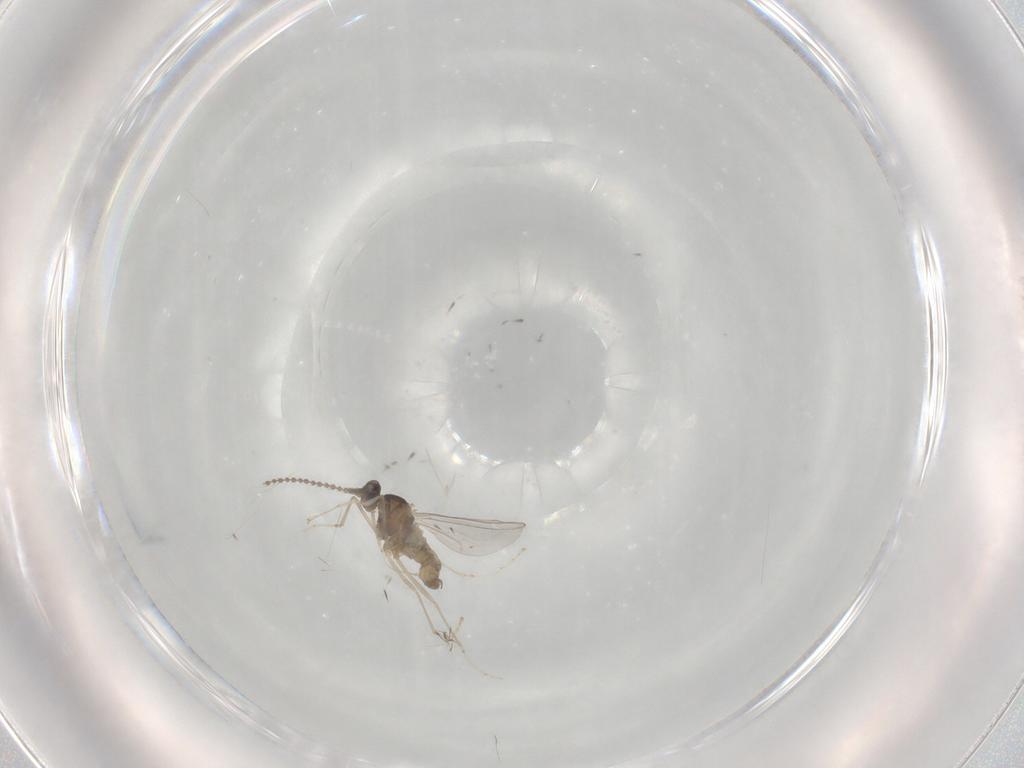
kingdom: Animalia
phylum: Arthropoda
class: Insecta
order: Diptera
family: Cecidomyiidae
